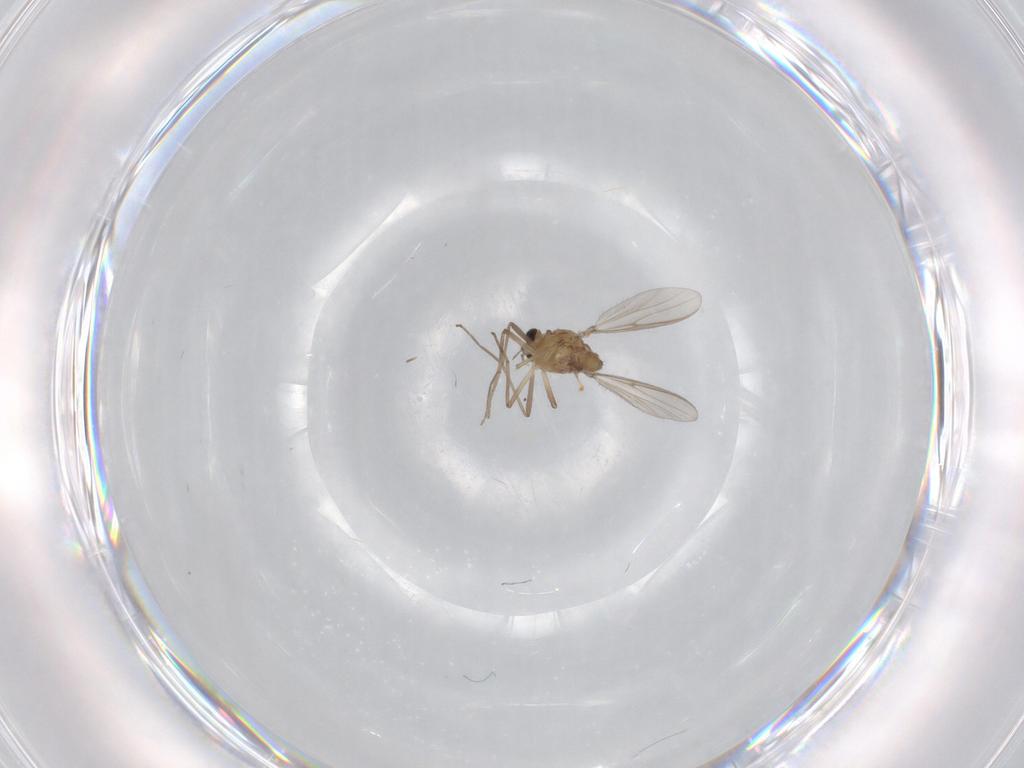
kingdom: Animalia
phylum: Arthropoda
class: Insecta
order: Diptera
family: Chironomidae
